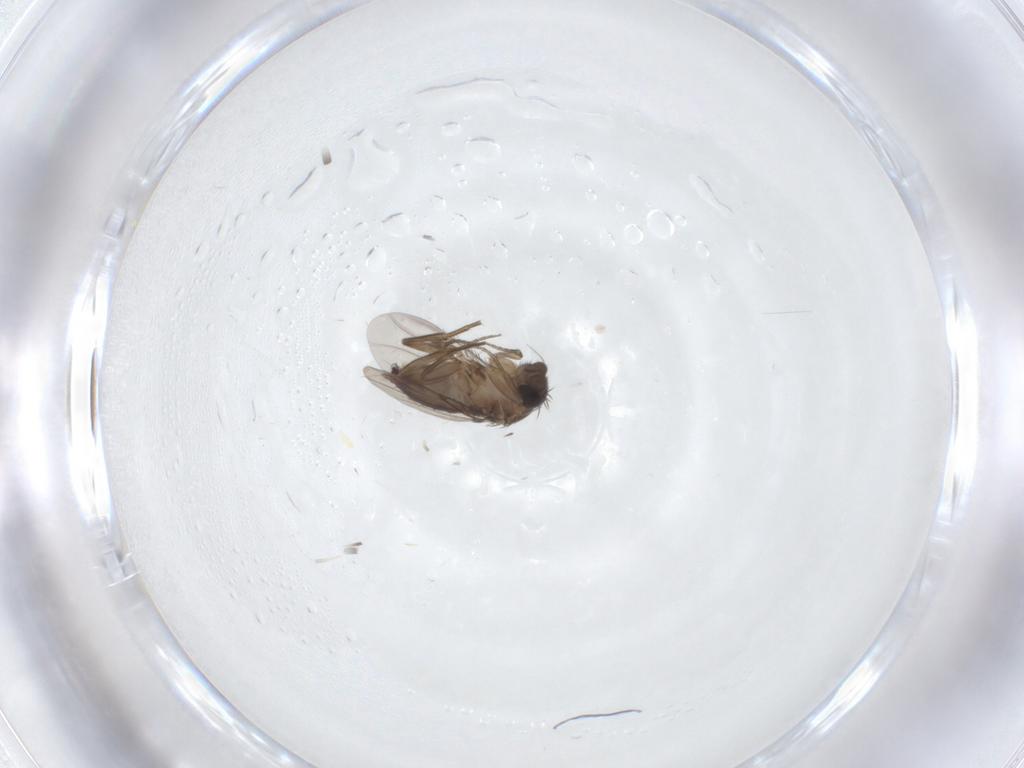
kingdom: Animalia
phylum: Arthropoda
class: Insecta
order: Diptera
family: Phoridae
